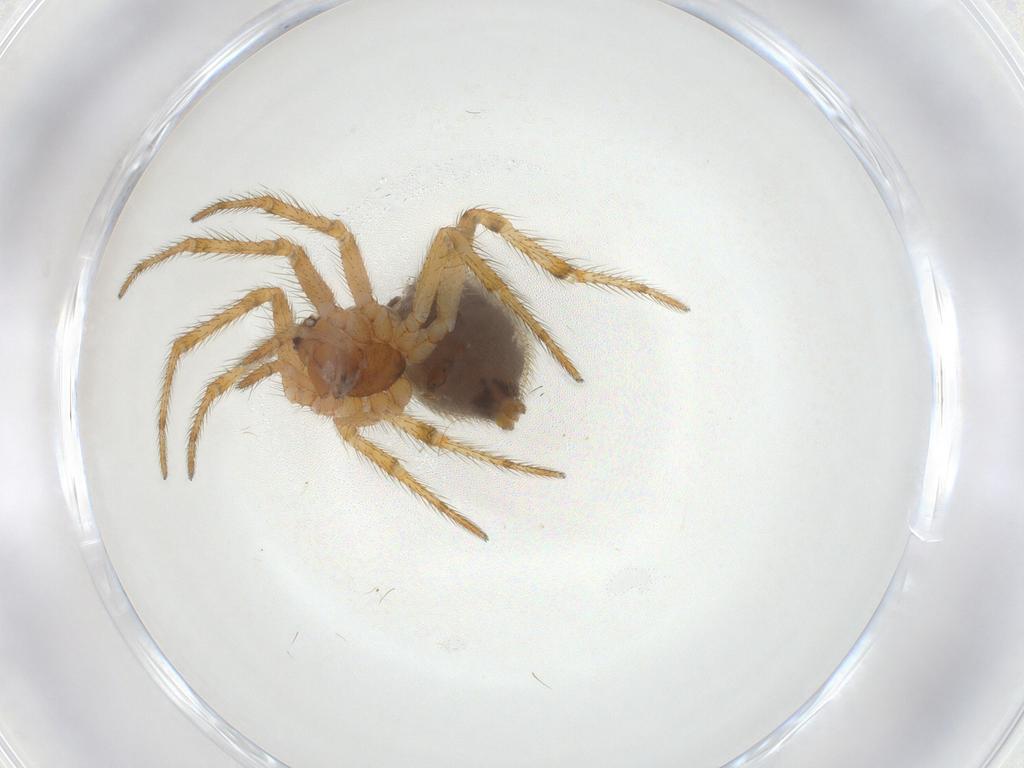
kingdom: Animalia
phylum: Arthropoda
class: Arachnida
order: Araneae
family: Theridiidae
